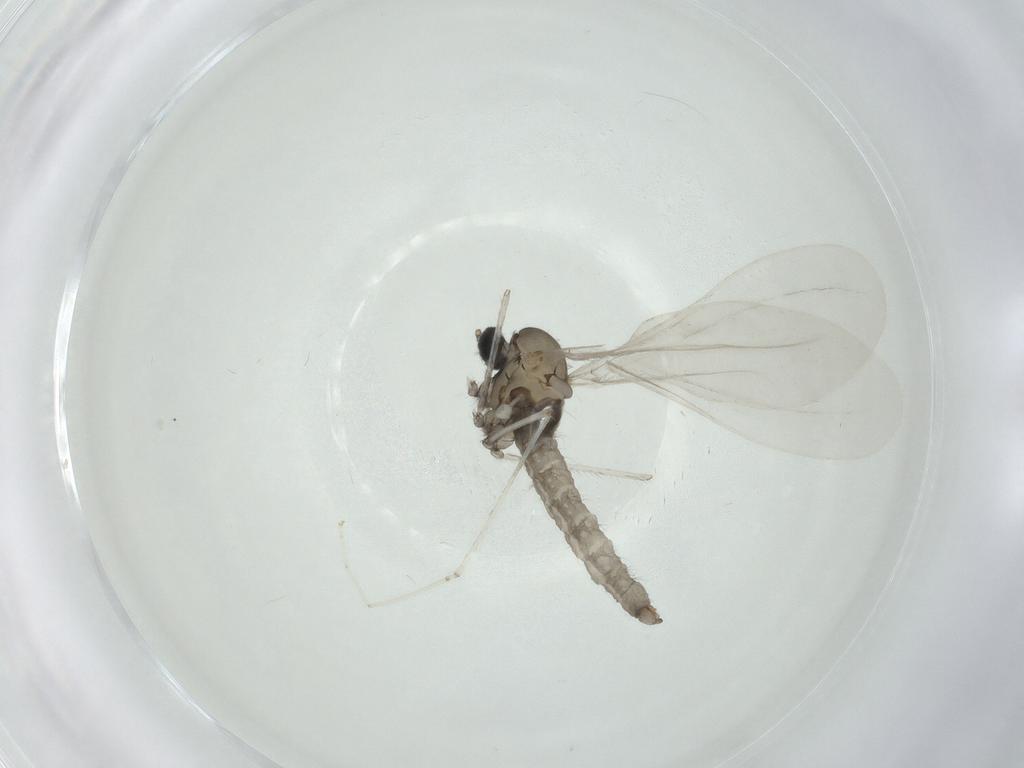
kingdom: Animalia
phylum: Arthropoda
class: Insecta
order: Diptera
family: Cecidomyiidae
